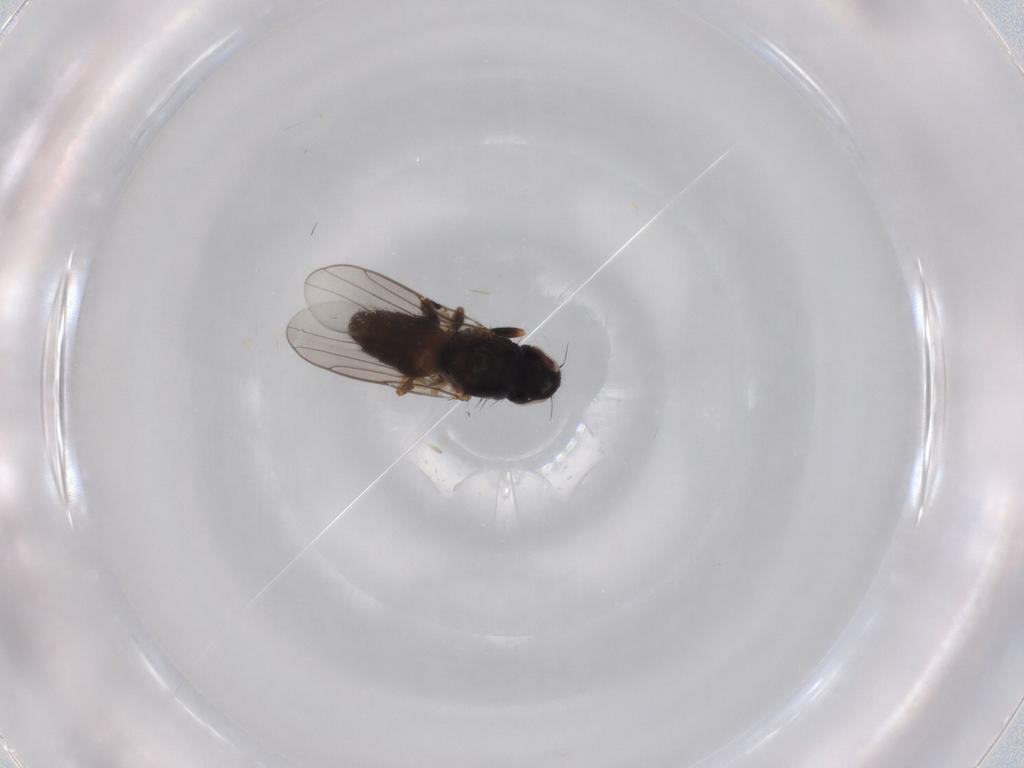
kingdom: Animalia
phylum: Arthropoda
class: Insecta
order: Diptera
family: Chloropidae
